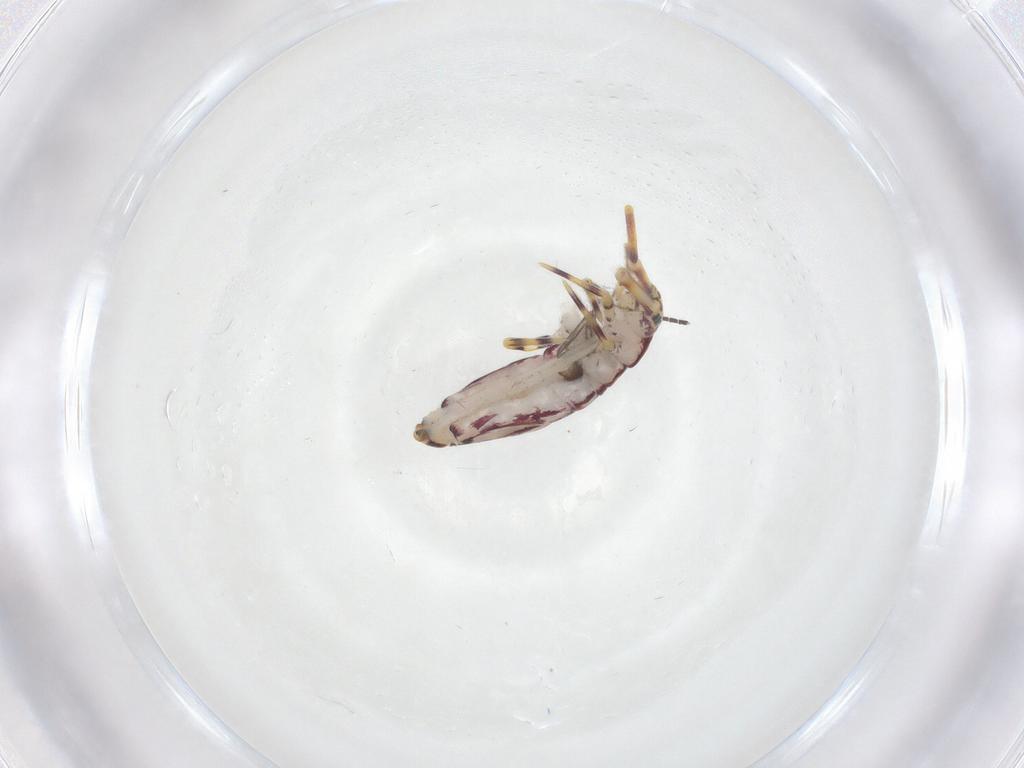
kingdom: Animalia
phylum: Arthropoda
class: Collembola
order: Entomobryomorpha
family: Entomobryidae
